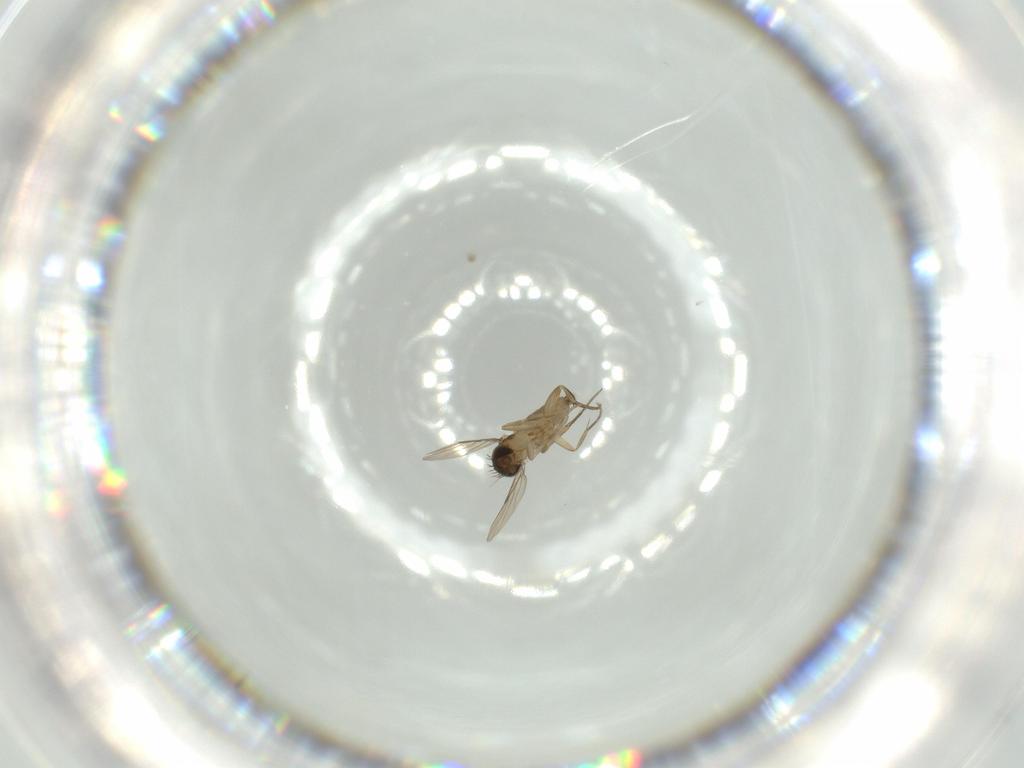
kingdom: Animalia
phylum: Arthropoda
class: Insecta
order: Diptera
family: Phoridae
